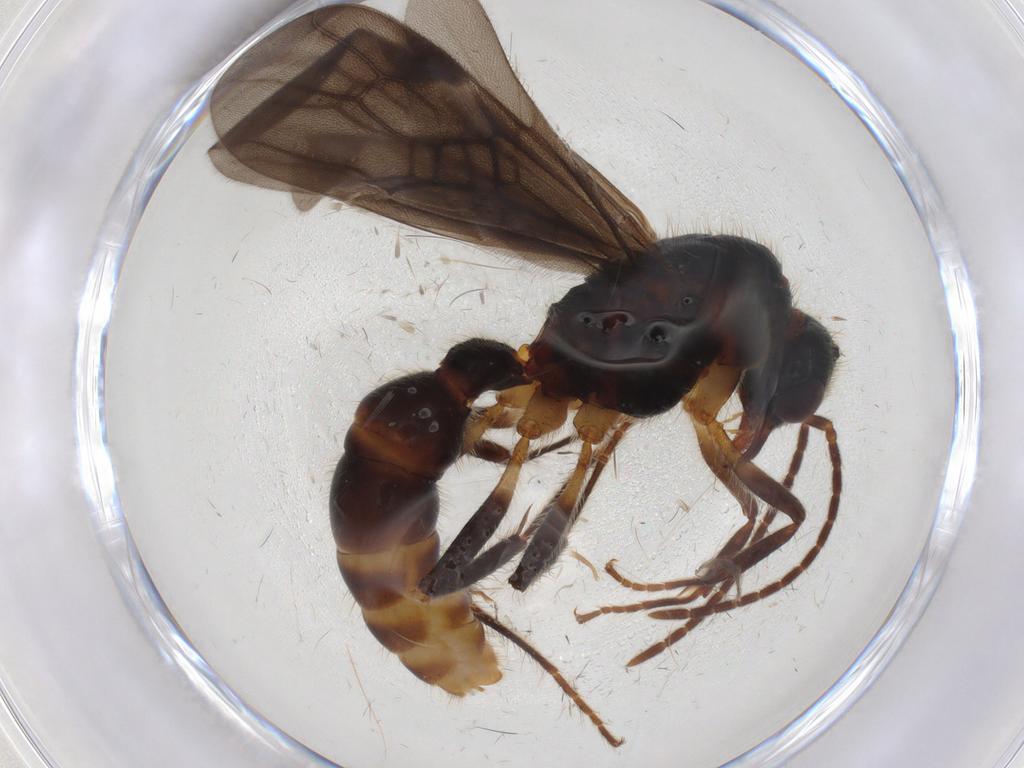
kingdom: Animalia
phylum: Arthropoda
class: Insecta
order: Hymenoptera
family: Formicidae
